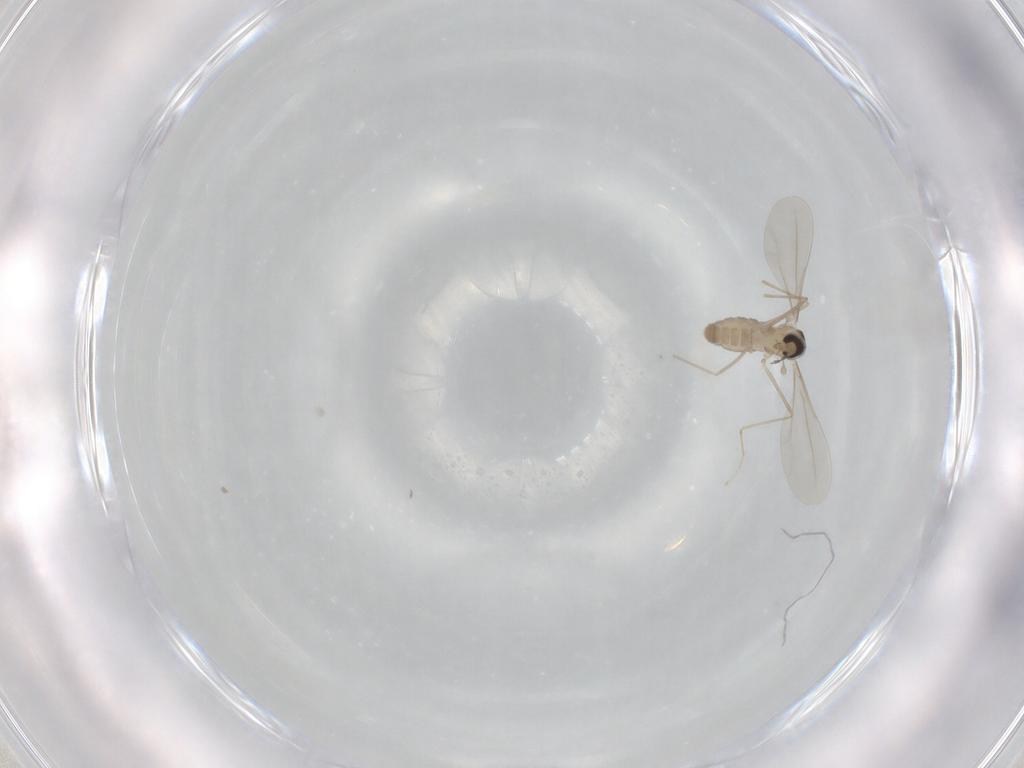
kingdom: Animalia
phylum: Arthropoda
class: Insecta
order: Diptera
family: Cecidomyiidae
